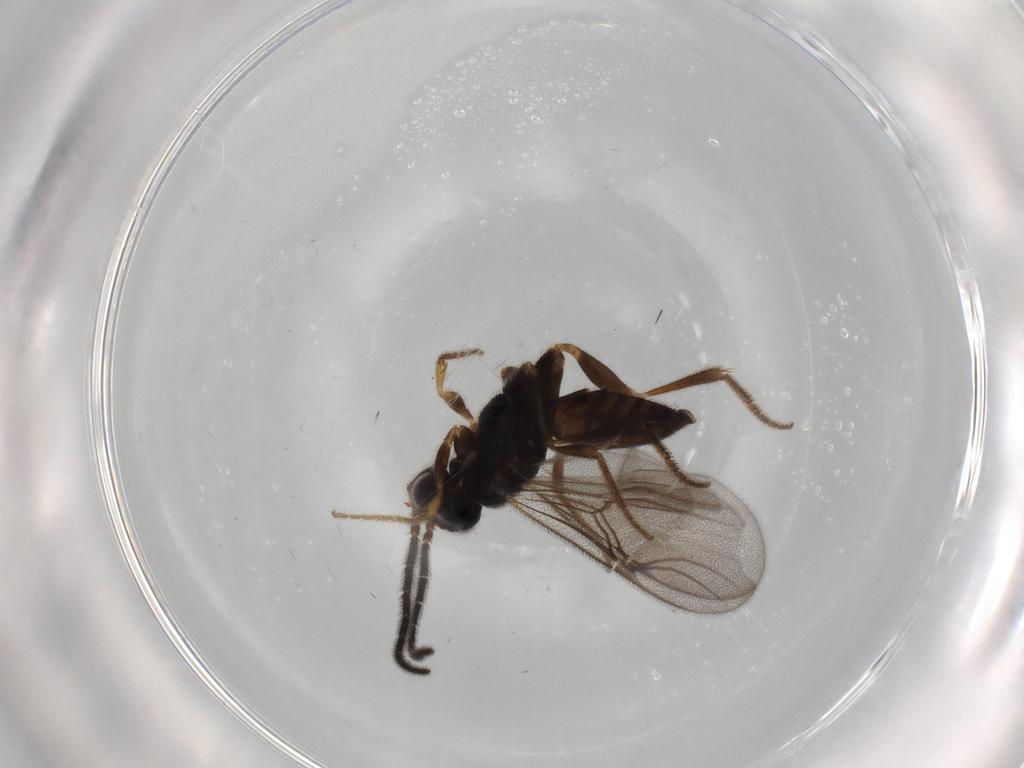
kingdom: Animalia
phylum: Arthropoda
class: Insecta
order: Hymenoptera
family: Dryinidae
